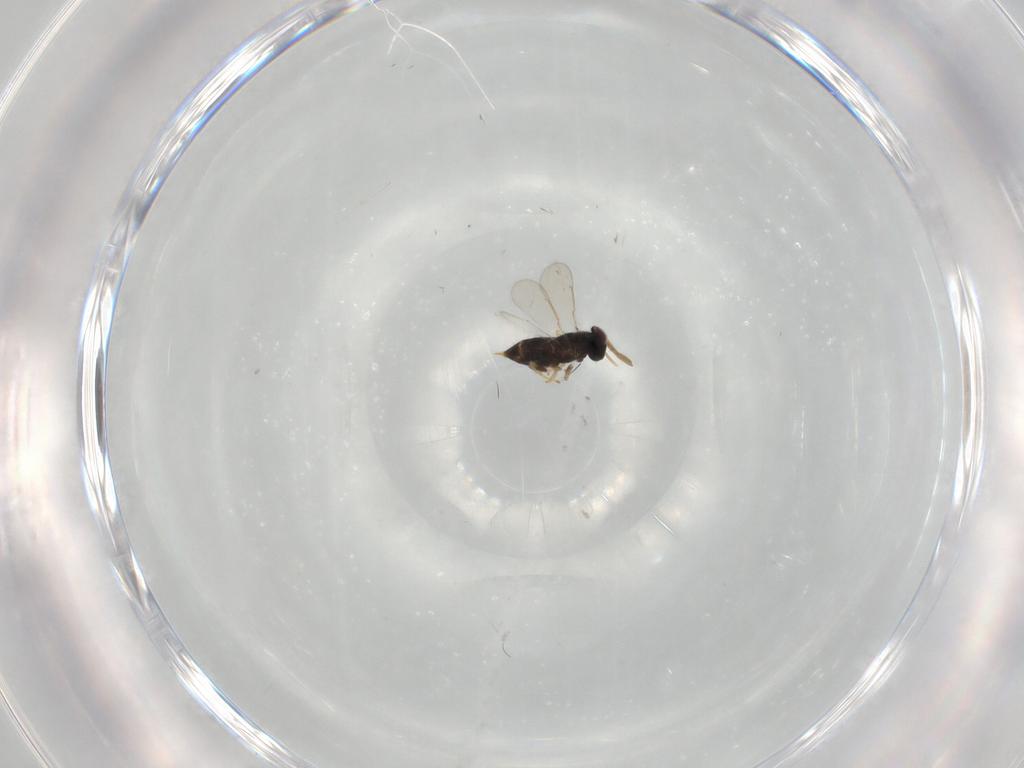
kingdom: Animalia
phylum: Arthropoda
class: Insecta
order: Hymenoptera
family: Aphelinidae
